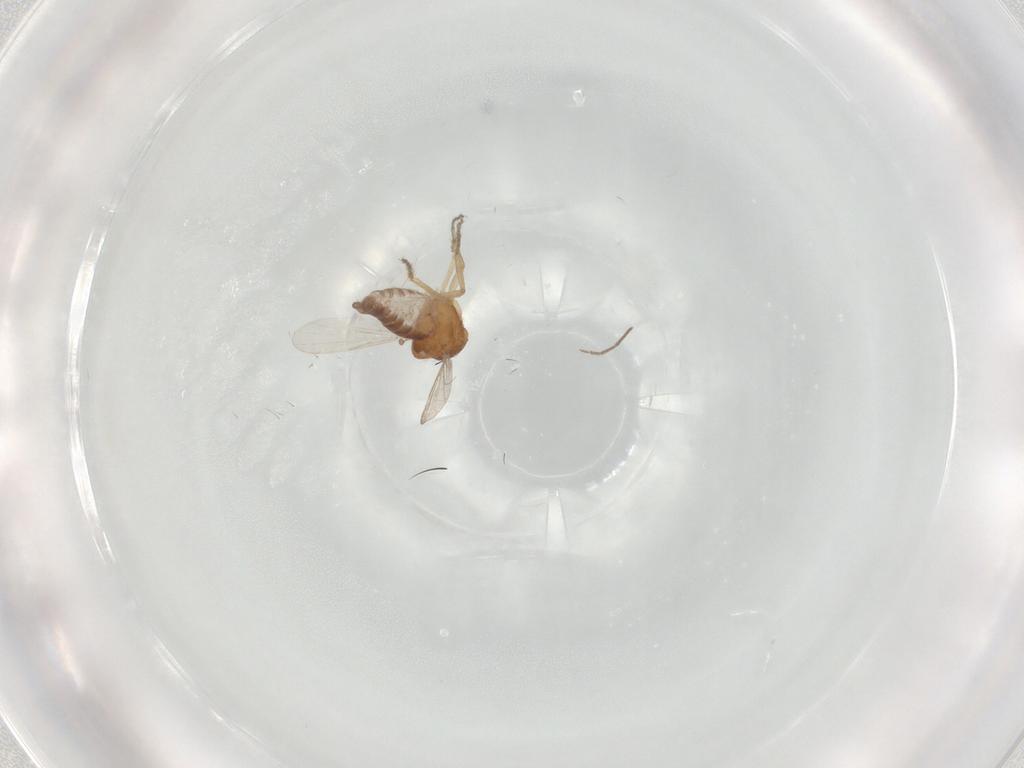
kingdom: Animalia
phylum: Arthropoda
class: Insecta
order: Diptera
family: Ceratopogonidae
